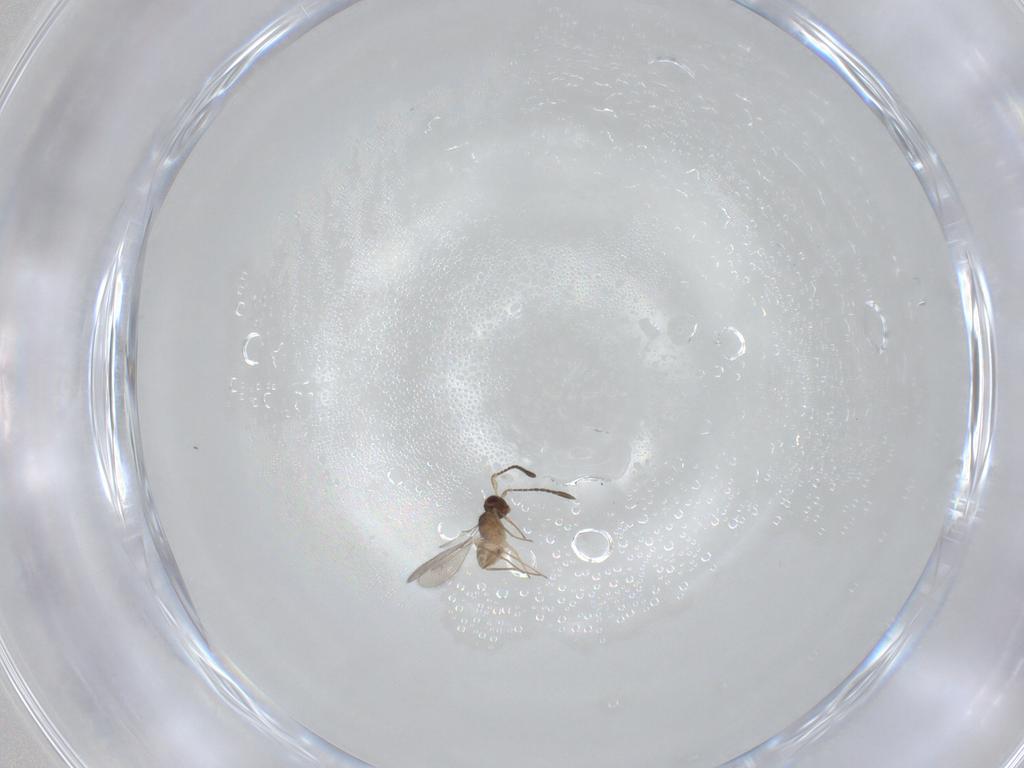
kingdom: Animalia
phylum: Arthropoda
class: Insecta
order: Hymenoptera
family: Mymaridae
